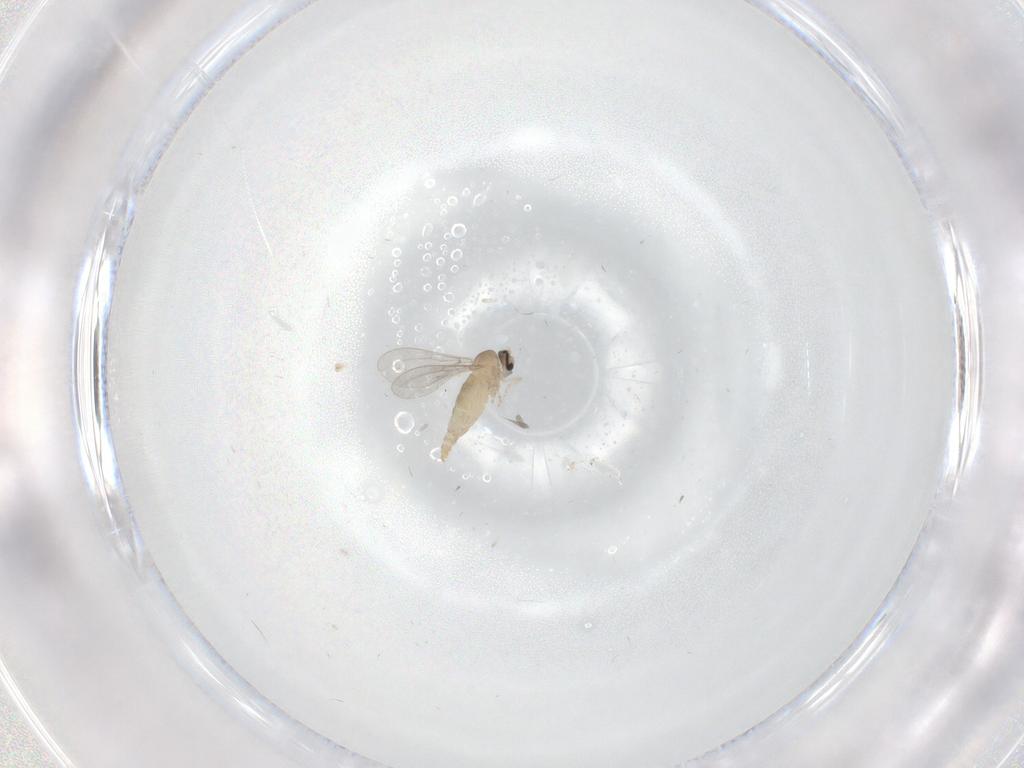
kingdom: Animalia
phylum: Arthropoda
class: Insecta
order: Diptera
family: Cecidomyiidae
